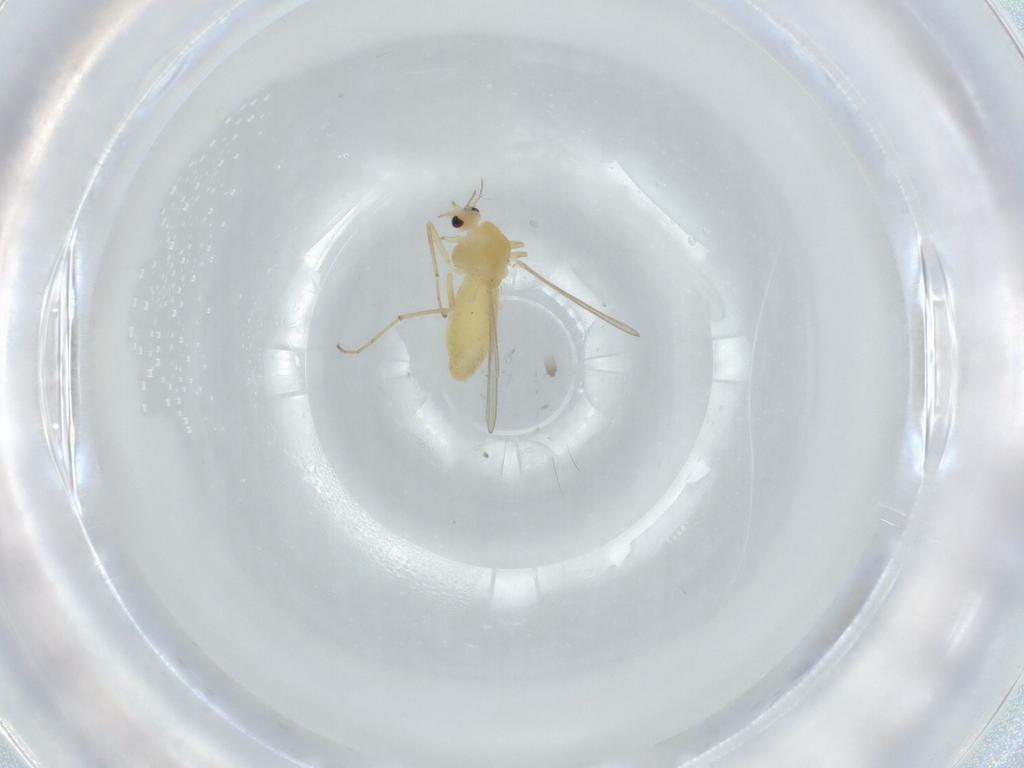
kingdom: Animalia
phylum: Arthropoda
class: Insecta
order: Diptera
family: Chironomidae
